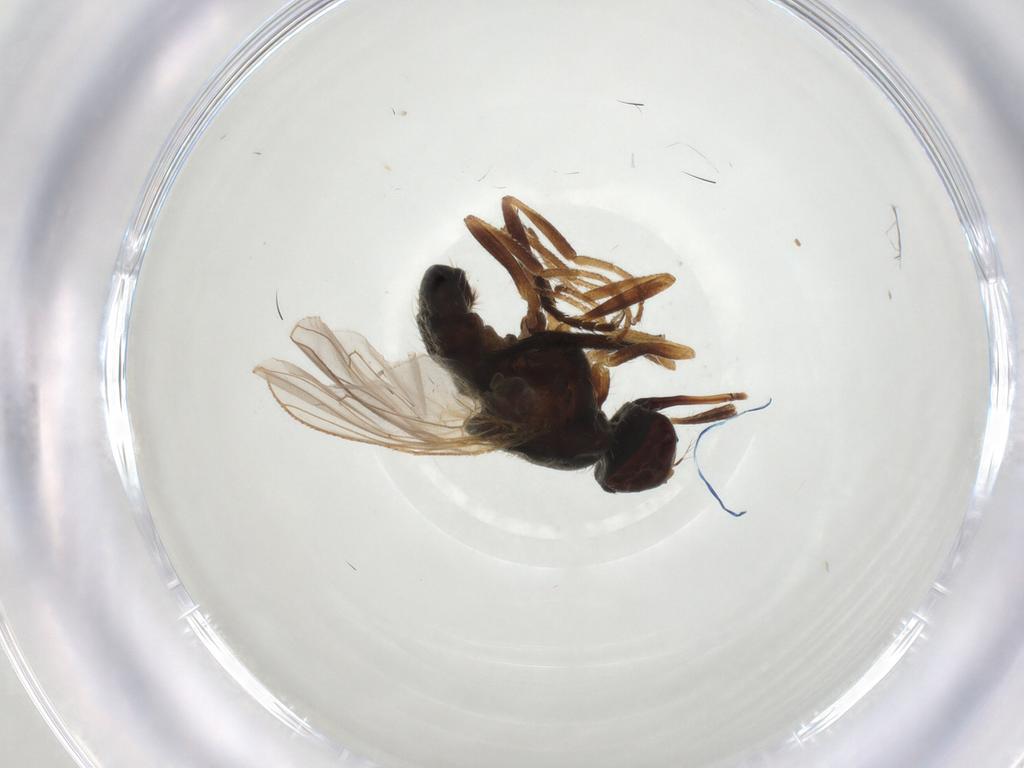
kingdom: Animalia
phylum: Arthropoda
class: Insecta
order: Diptera
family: Muscidae
